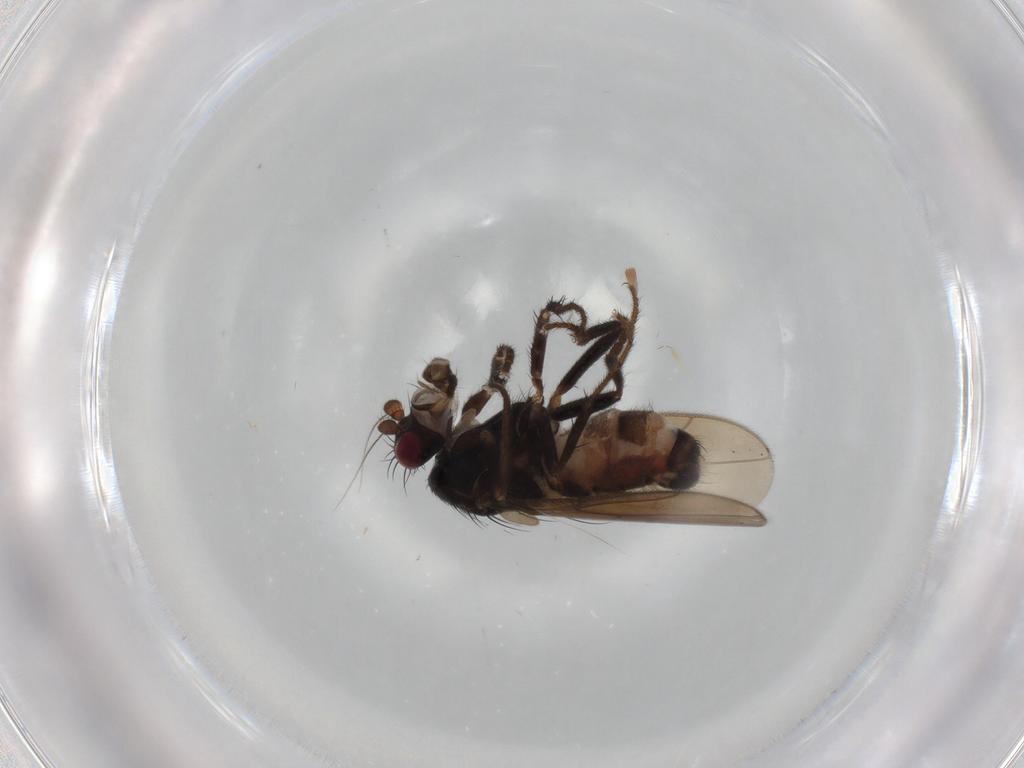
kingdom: Animalia
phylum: Arthropoda
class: Insecta
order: Diptera
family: Sphaeroceridae
